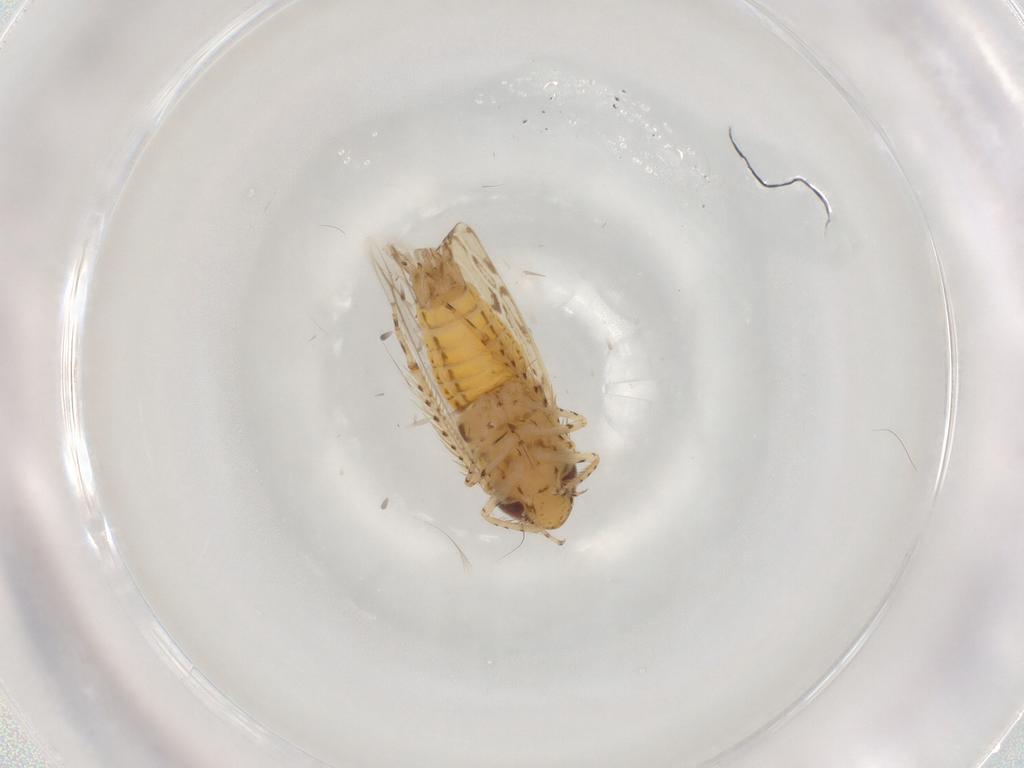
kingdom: Animalia
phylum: Arthropoda
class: Insecta
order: Hemiptera
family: Cicadellidae
